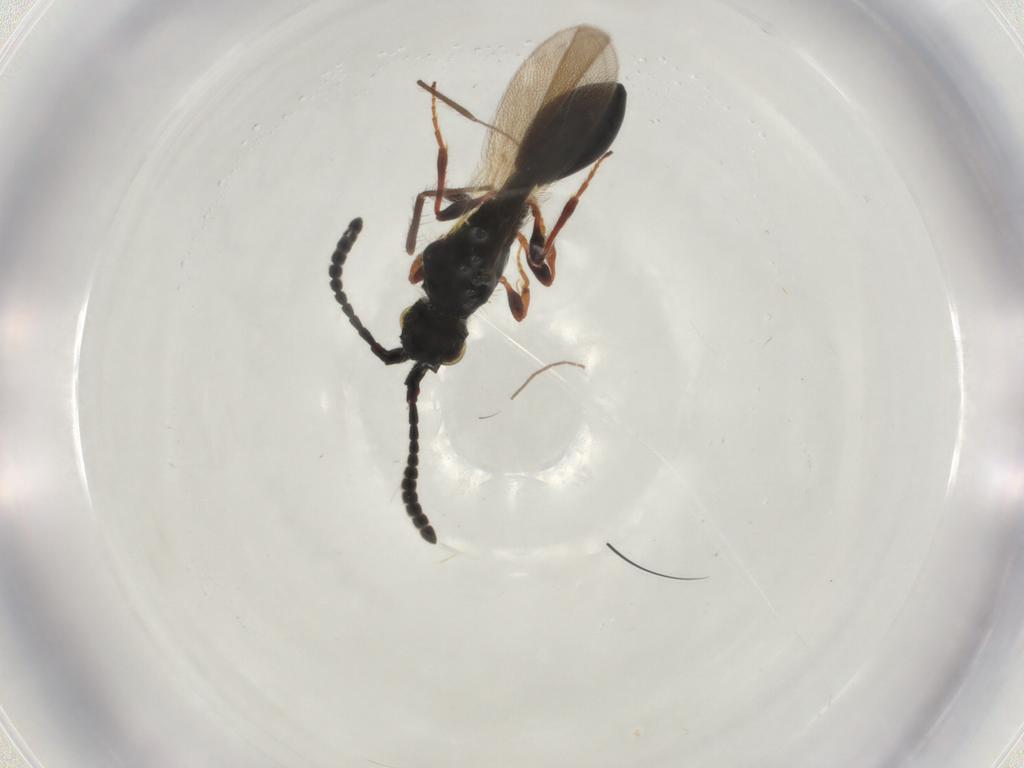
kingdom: Animalia
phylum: Arthropoda
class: Insecta
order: Hymenoptera
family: Diapriidae
